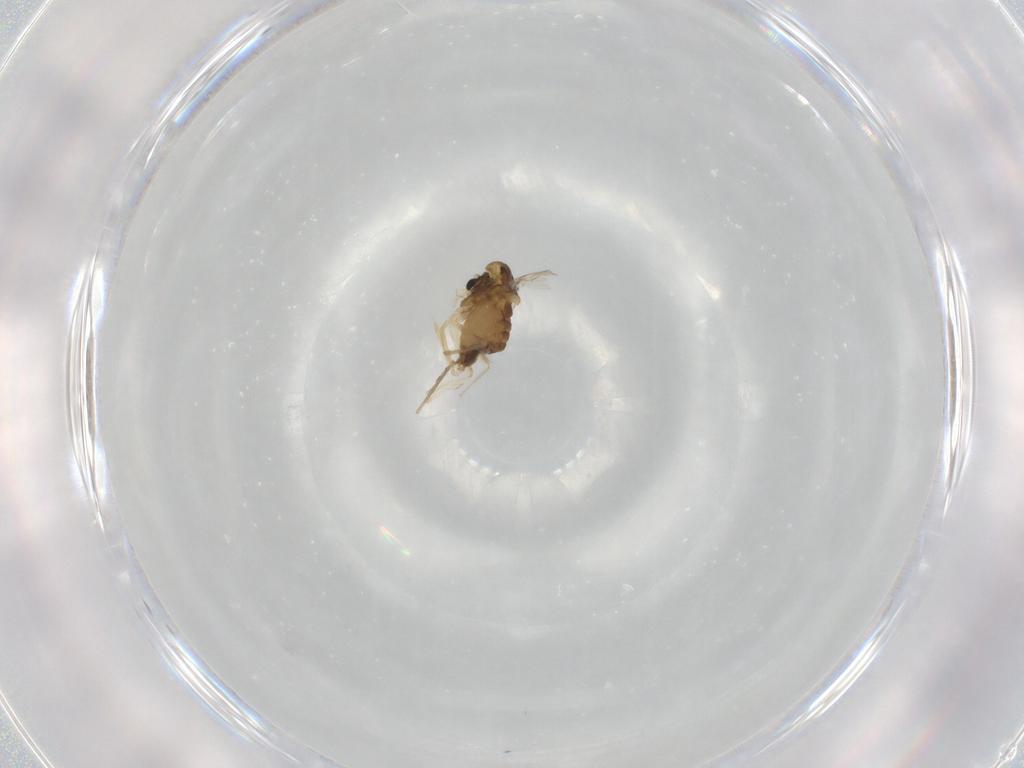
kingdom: Animalia
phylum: Arthropoda
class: Insecta
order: Diptera
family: Chironomidae
